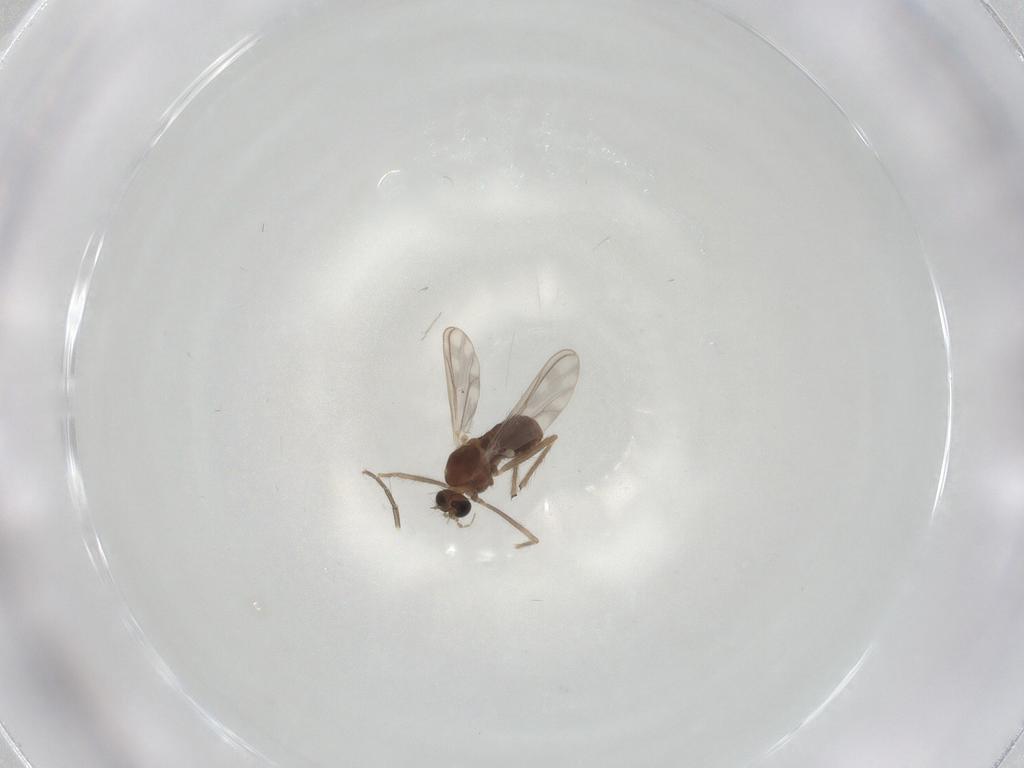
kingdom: Animalia
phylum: Arthropoda
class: Insecta
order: Diptera
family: Chironomidae
